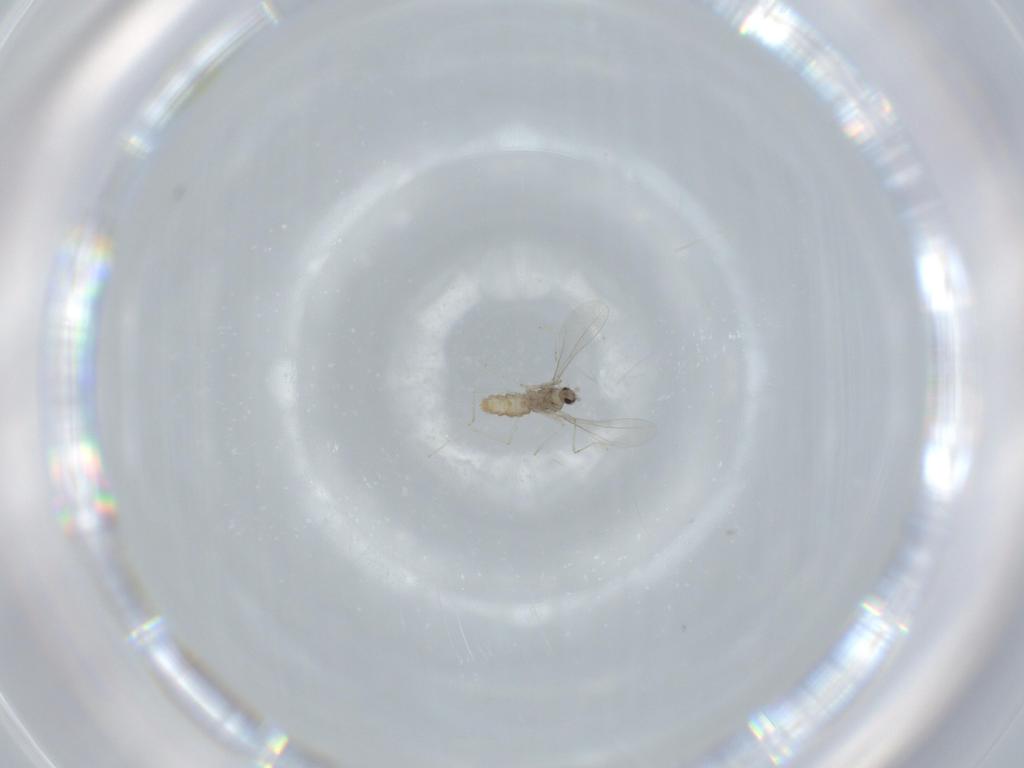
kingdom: Animalia
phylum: Arthropoda
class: Insecta
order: Diptera
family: Cecidomyiidae
